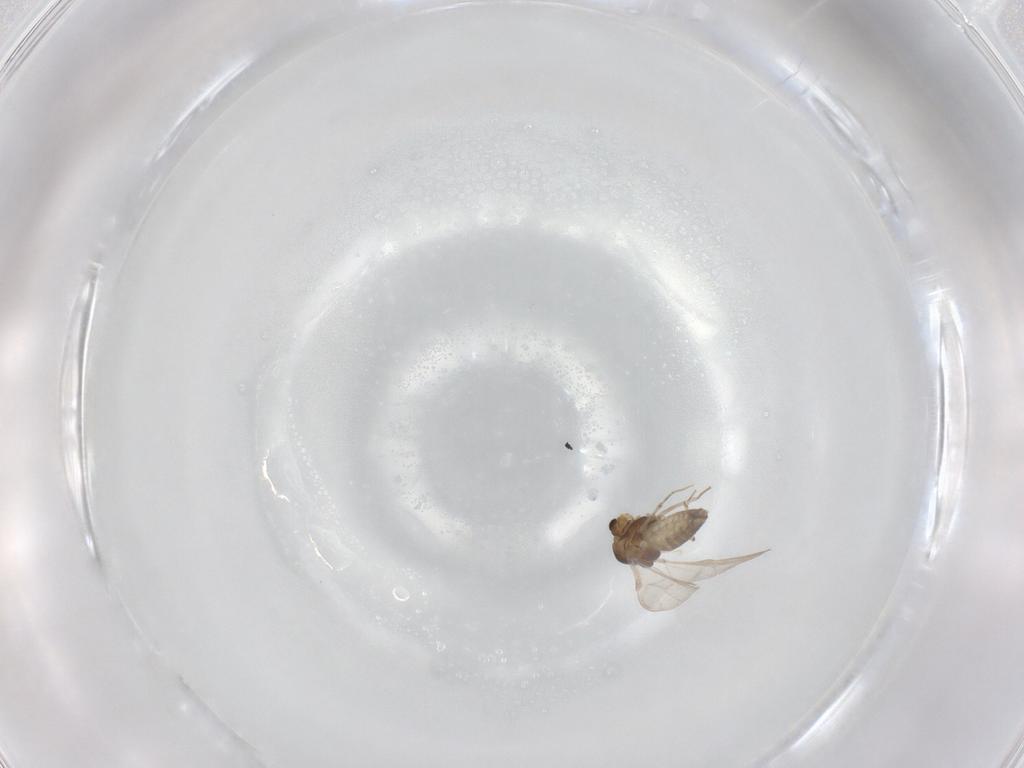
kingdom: Animalia
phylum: Arthropoda
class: Insecta
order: Diptera
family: Chironomidae
